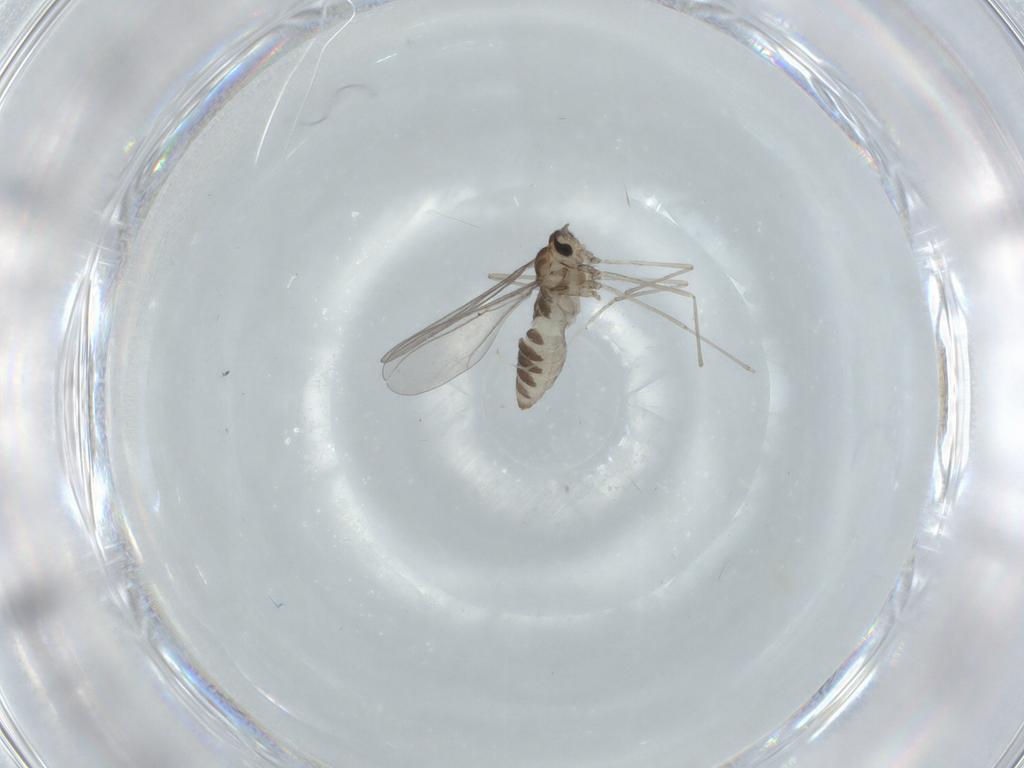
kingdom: Animalia
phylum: Arthropoda
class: Insecta
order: Diptera
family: Cecidomyiidae
